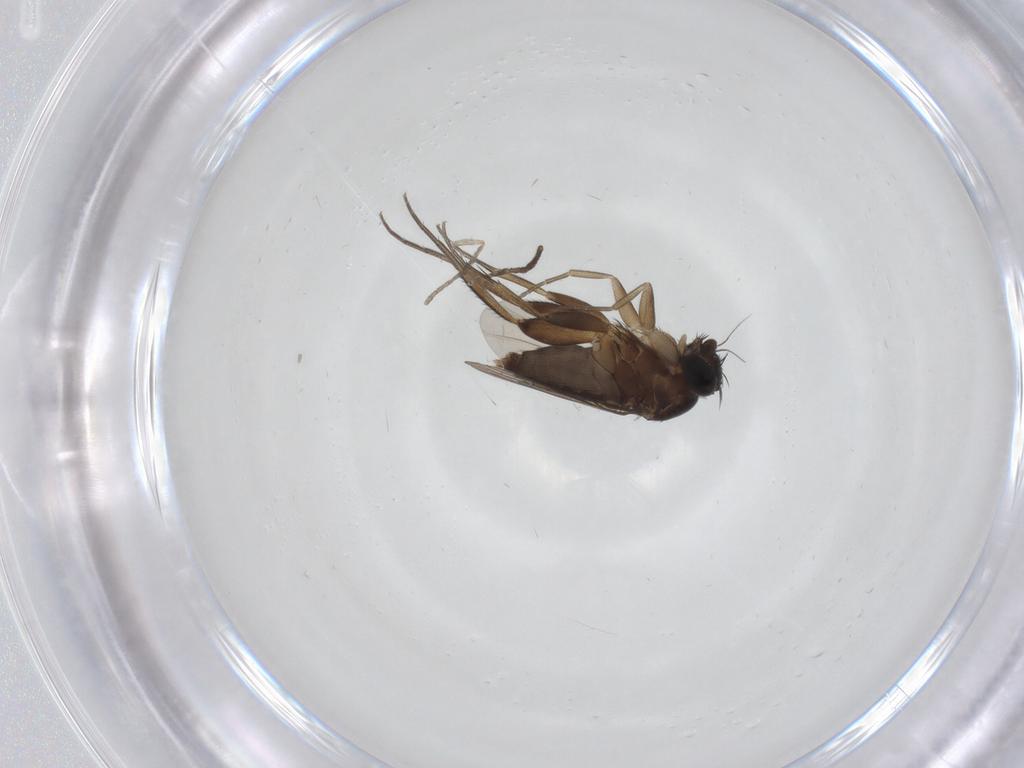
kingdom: Animalia
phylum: Arthropoda
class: Insecta
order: Diptera
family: Phoridae
